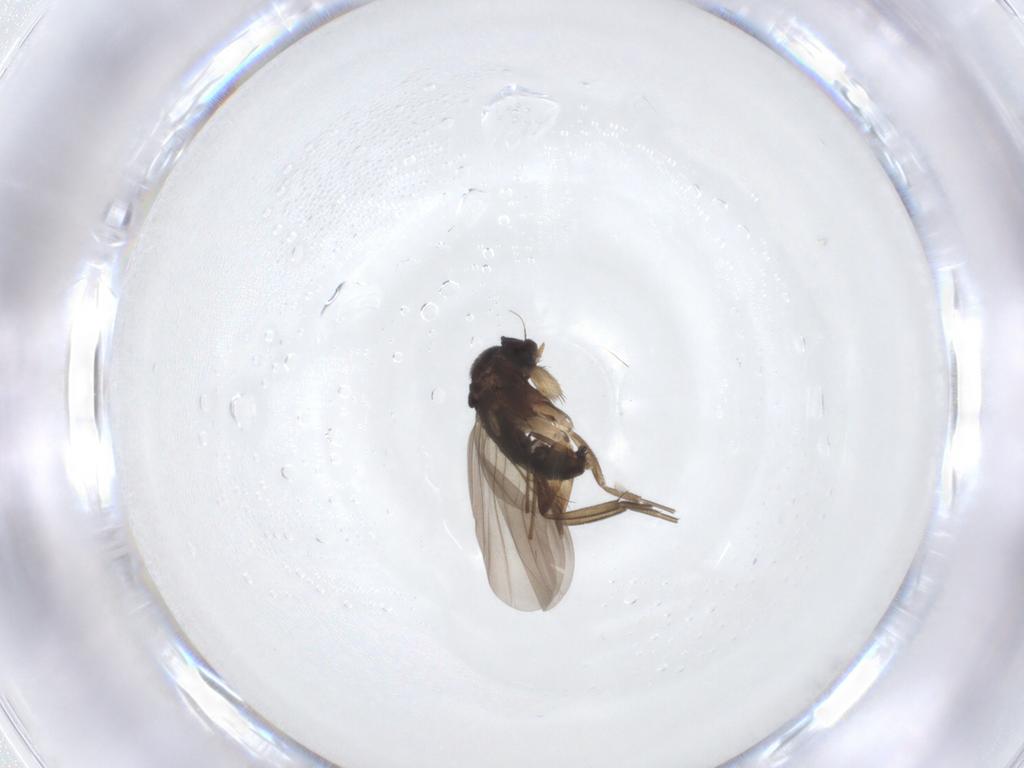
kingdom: Animalia
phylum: Arthropoda
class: Insecta
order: Diptera
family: Phoridae
